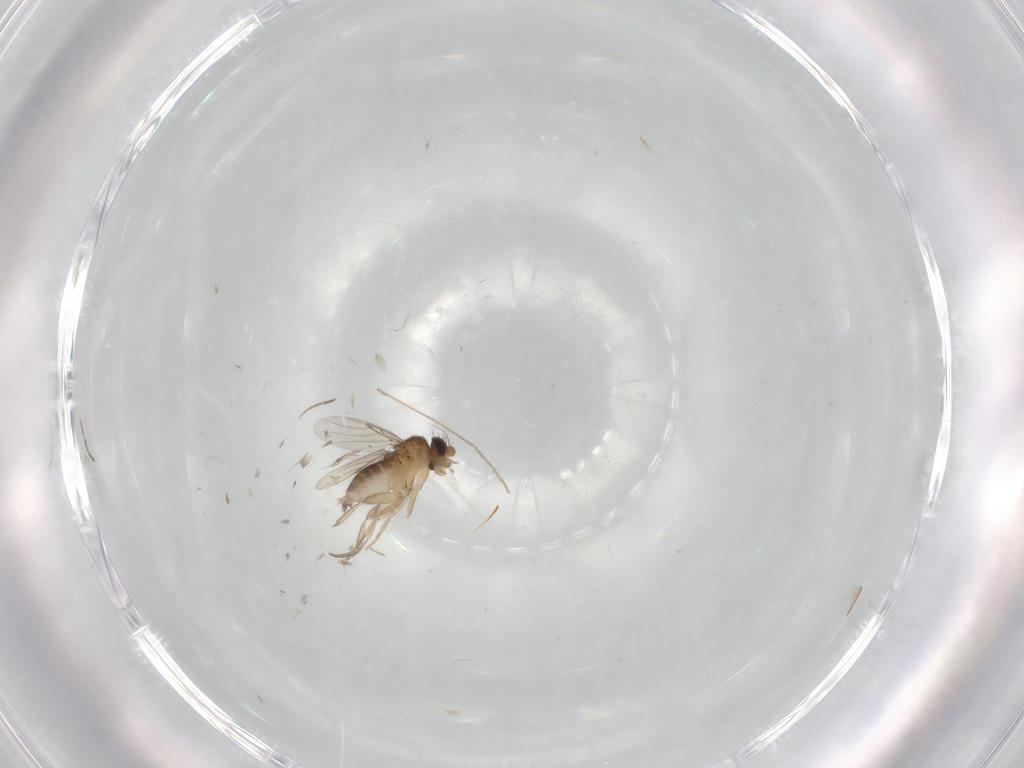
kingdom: Animalia
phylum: Arthropoda
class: Insecta
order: Diptera
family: Phoridae
